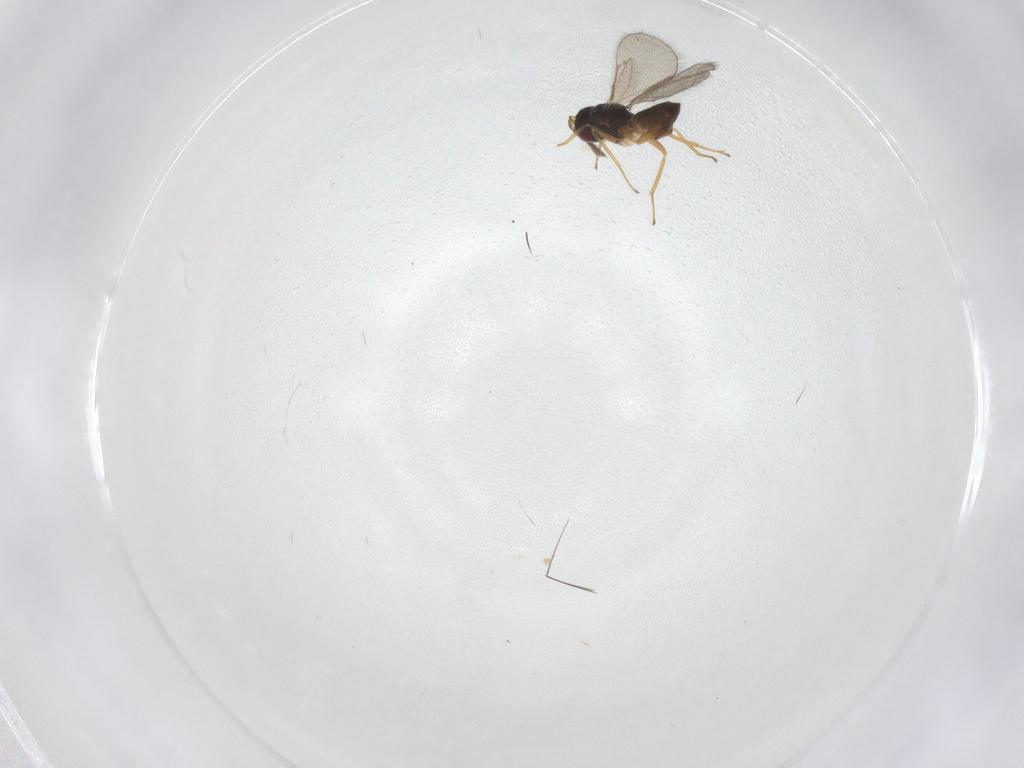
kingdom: Animalia
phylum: Arthropoda
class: Insecta
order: Hymenoptera
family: Eulophidae
